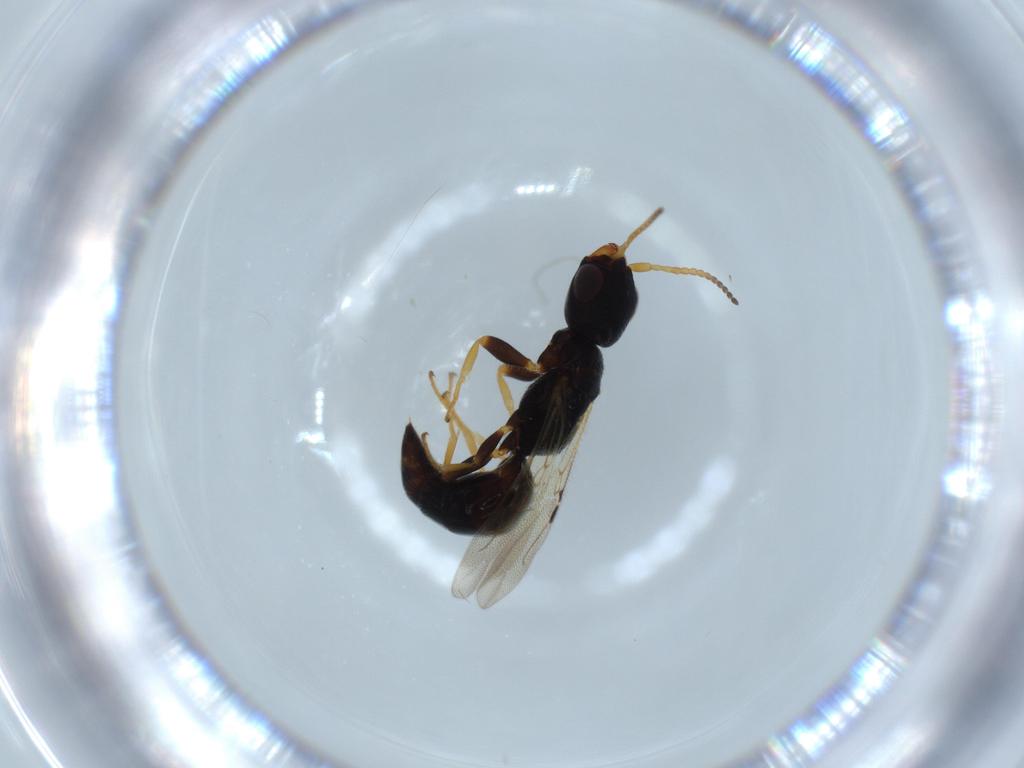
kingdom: Animalia
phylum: Arthropoda
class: Insecta
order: Hymenoptera
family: Bethylidae
